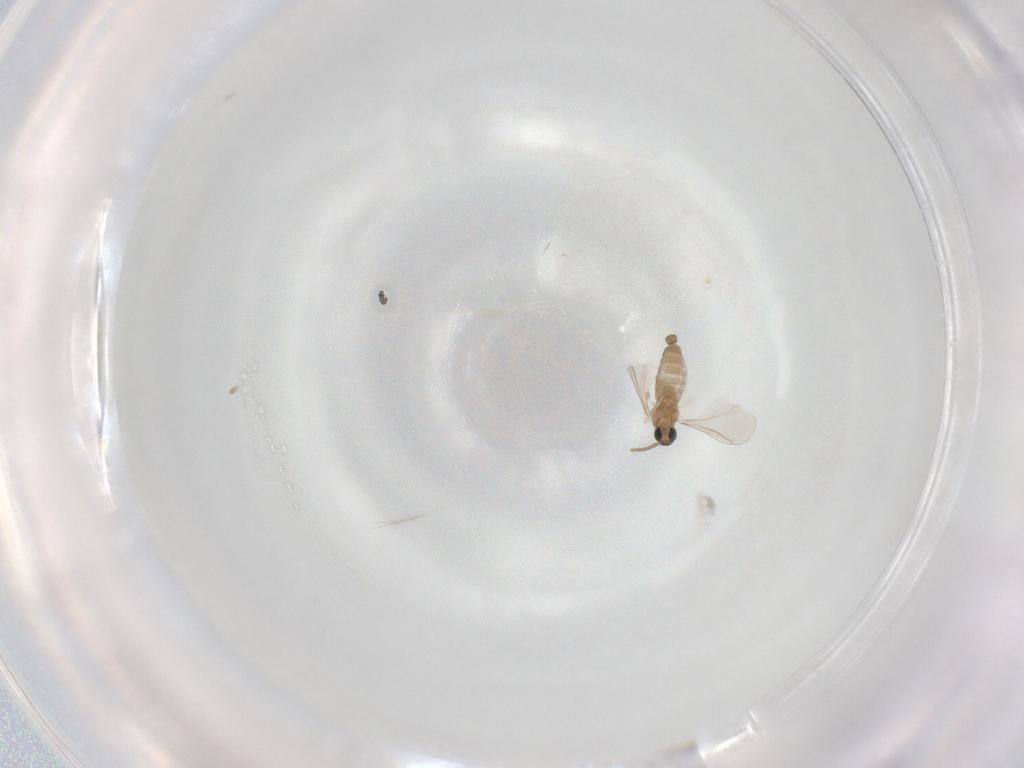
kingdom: Animalia
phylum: Arthropoda
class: Insecta
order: Diptera
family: Cecidomyiidae
